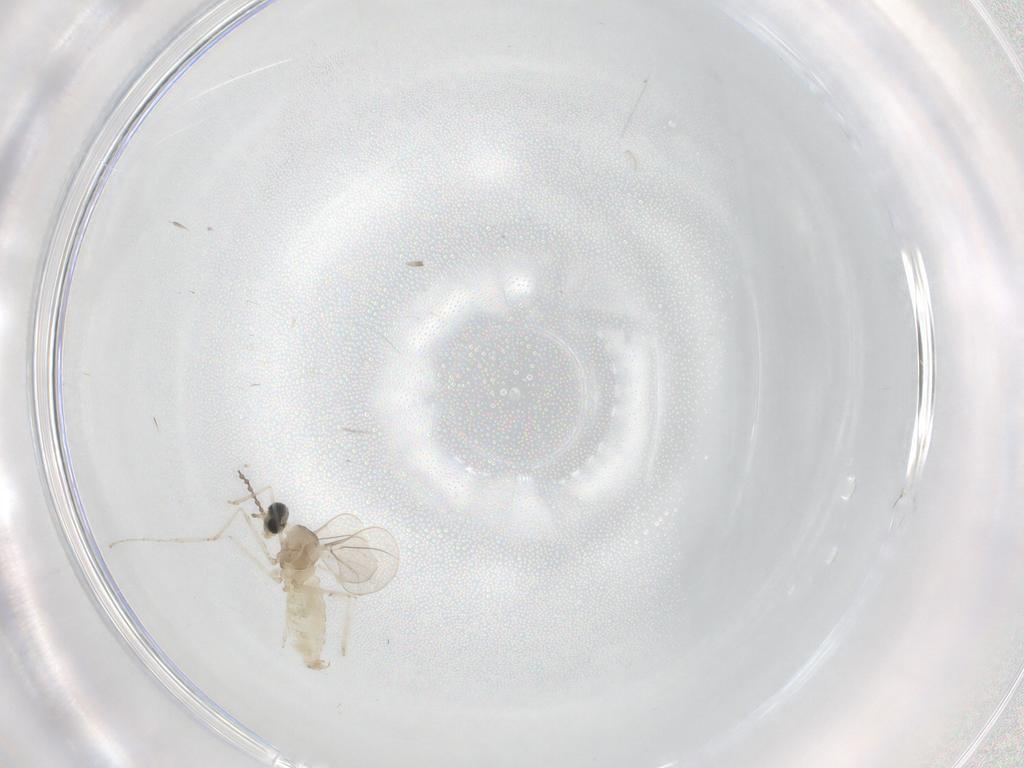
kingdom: Animalia
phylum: Arthropoda
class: Insecta
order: Diptera
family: Cecidomyiidae
